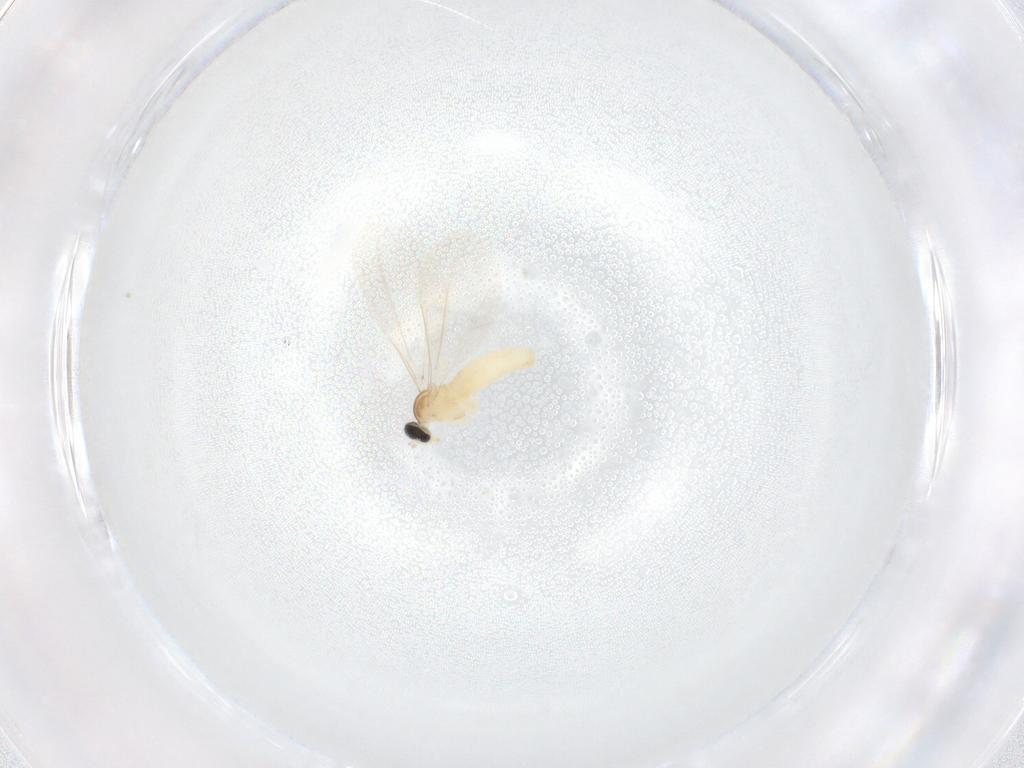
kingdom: Animalia
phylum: Arthropoda
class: Insecta
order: Diptera
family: Cecidomyiidae
